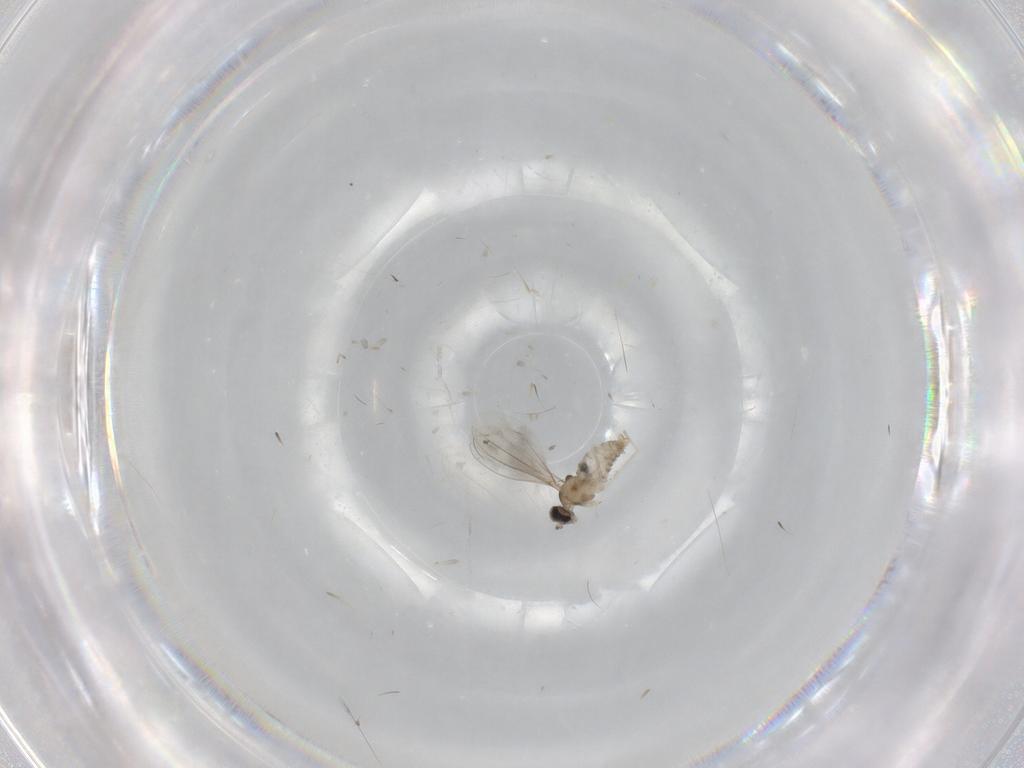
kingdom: Animalia
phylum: Arthropoda
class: Insecta
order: Diptera
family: Cecidomyiidae
